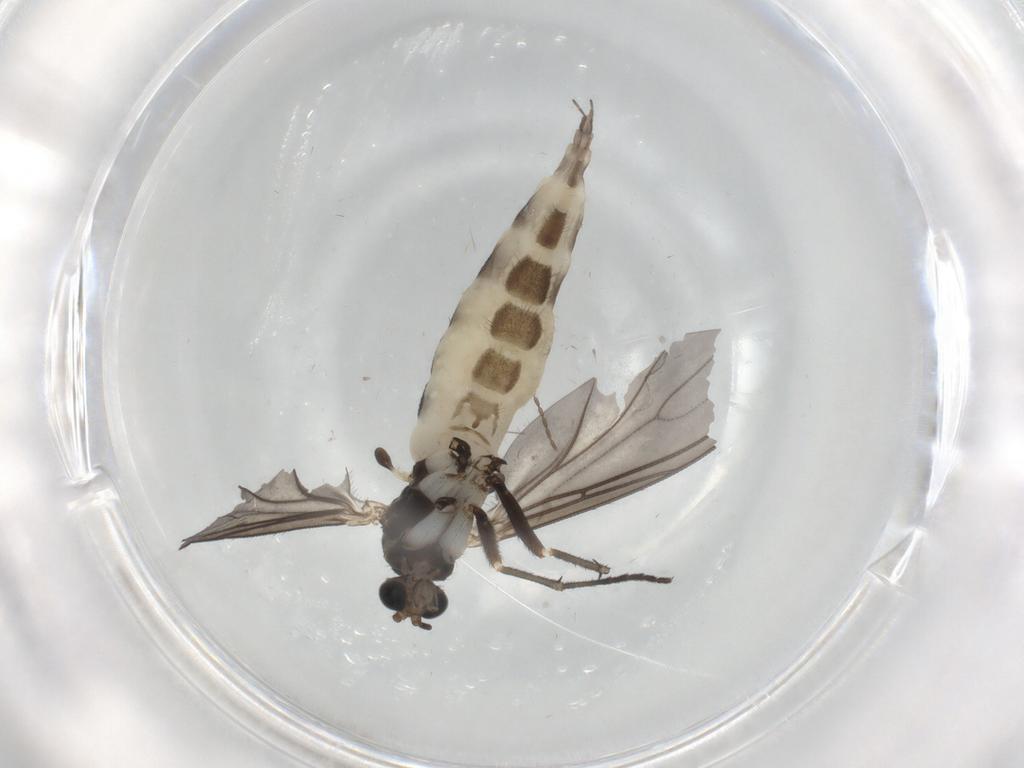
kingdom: Animalia
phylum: Arthropoda
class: Insecta
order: Diptera
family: Sciaridae
